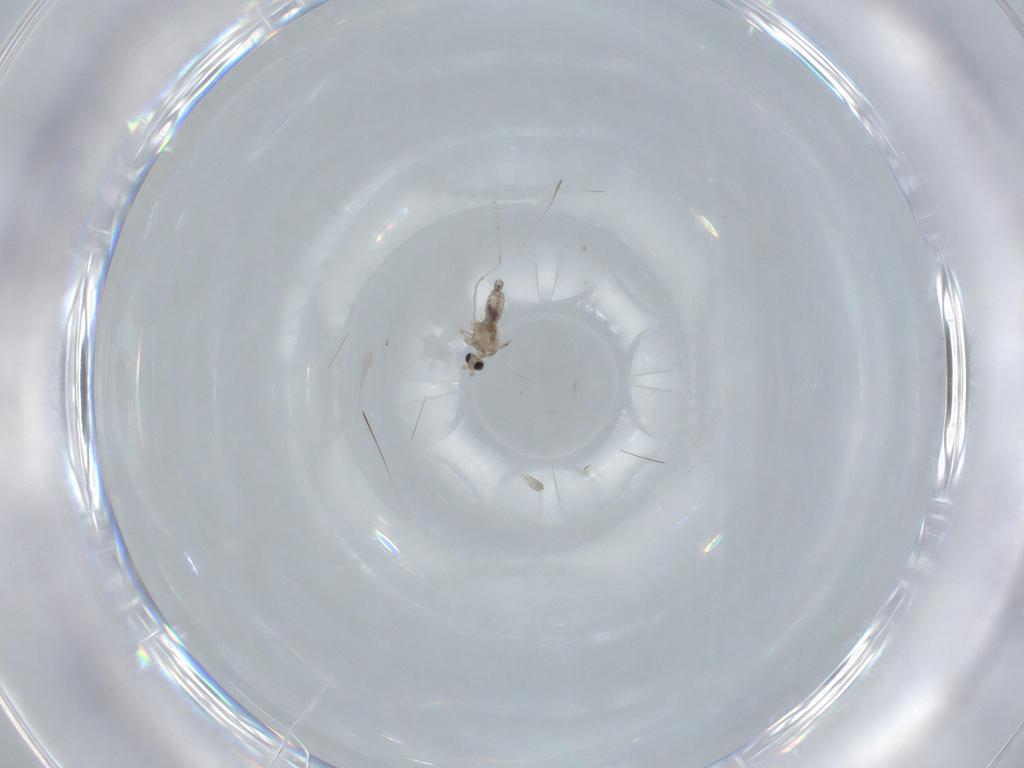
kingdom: Animalia
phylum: Arthropoda
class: Insecta
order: Diptera
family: Cecidomyiidae
